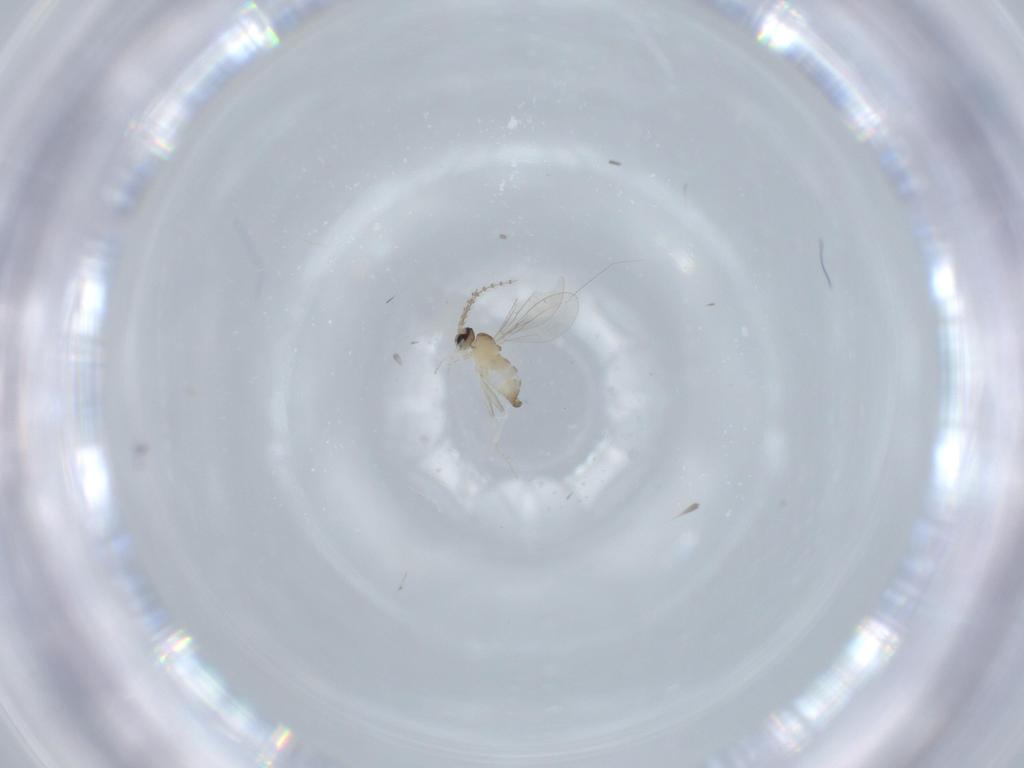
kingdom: Animalia
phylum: Arthropoda
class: Insecta
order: Diptera
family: Cecidomyiidae
